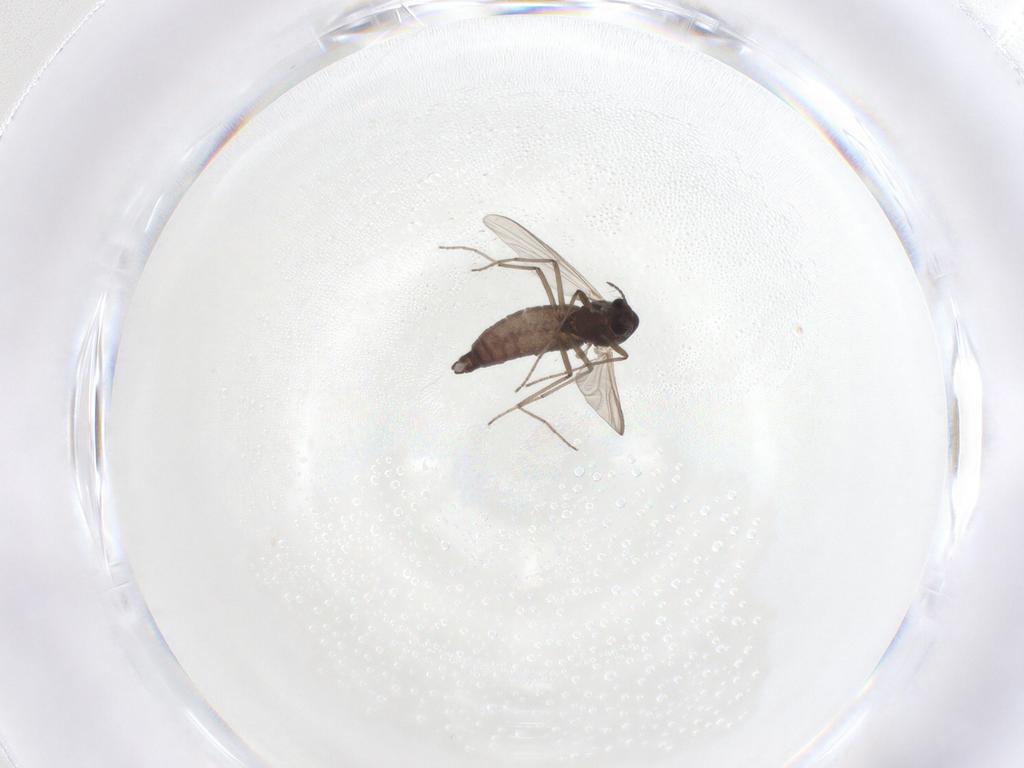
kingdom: Animalia
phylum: Arthropoda
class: Insecta
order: Diptera
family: Chironomidae
